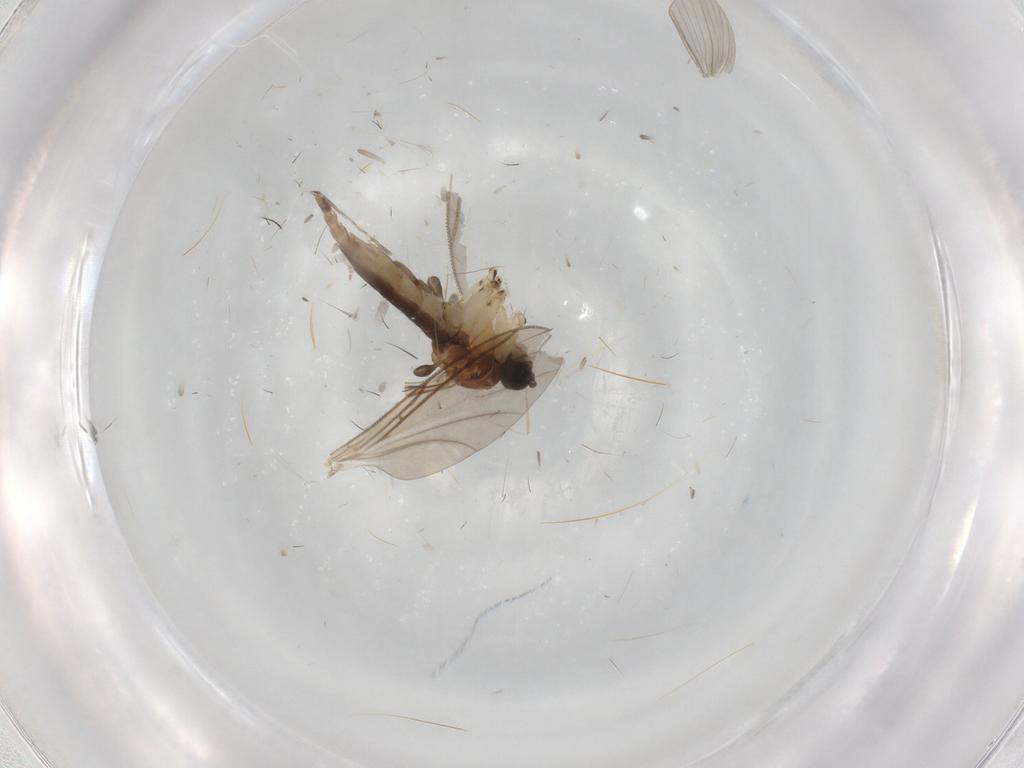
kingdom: Animalia
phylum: Arthropoda
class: Insecta
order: Diptera
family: Sciaridae
